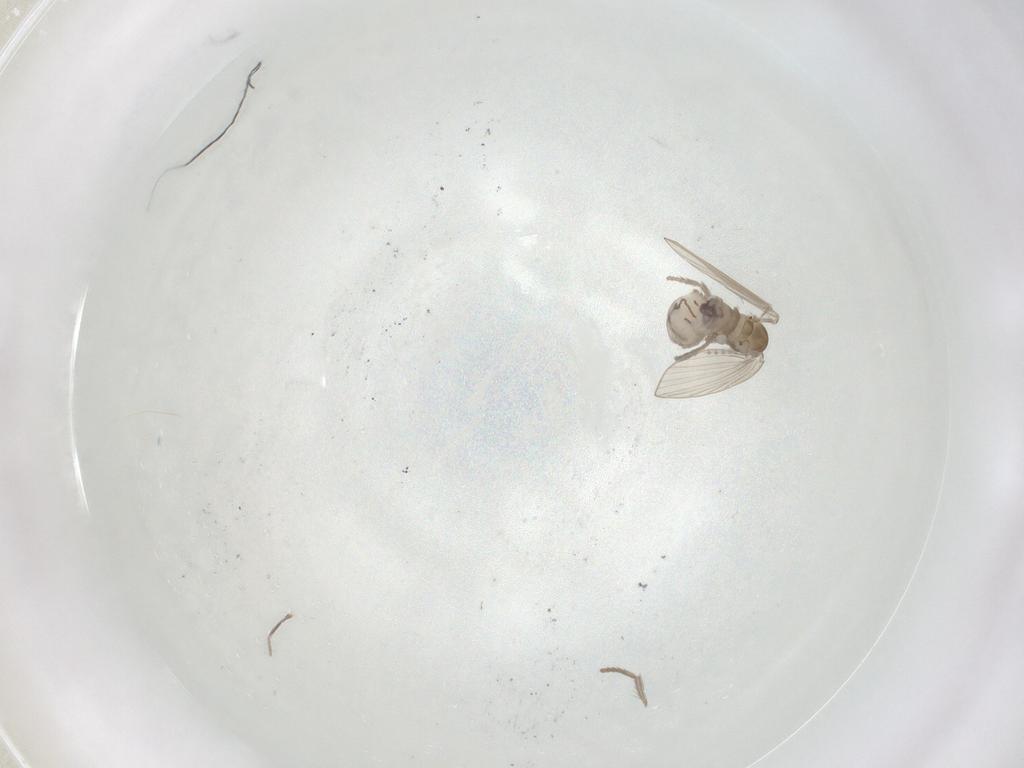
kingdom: Animalia
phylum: Arthropoda
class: Insecta
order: Diptera
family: Psychodidae
